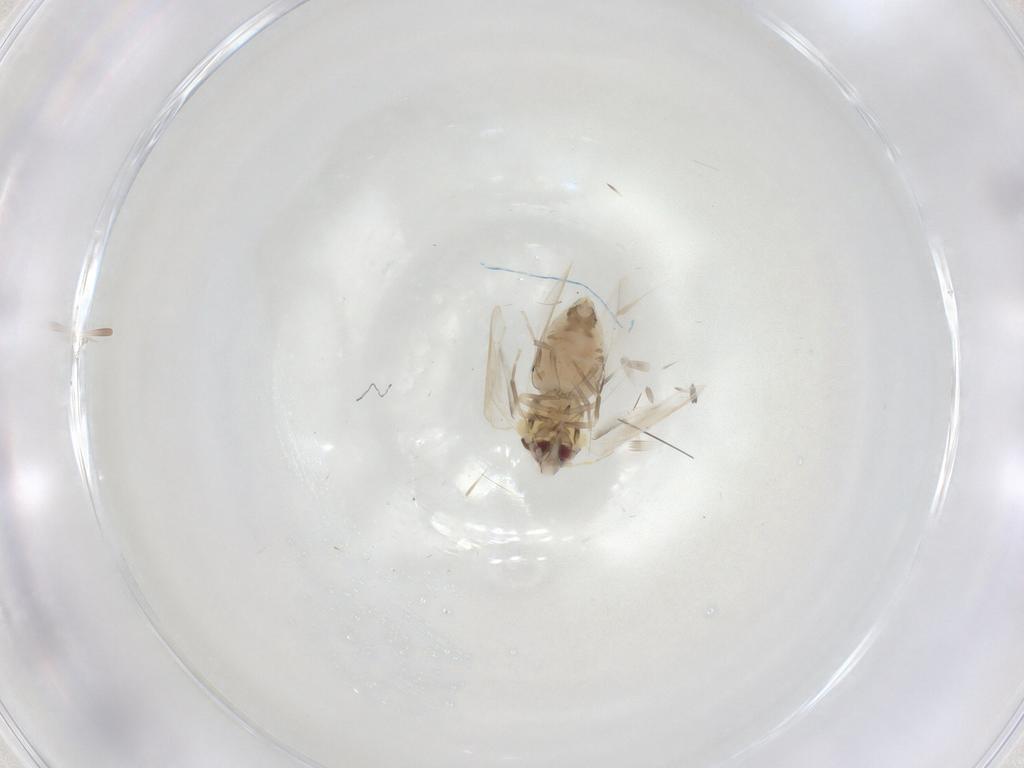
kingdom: Animalia
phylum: Arthropoda
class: Insecta
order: Hemiptera
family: Aleyrodidae
